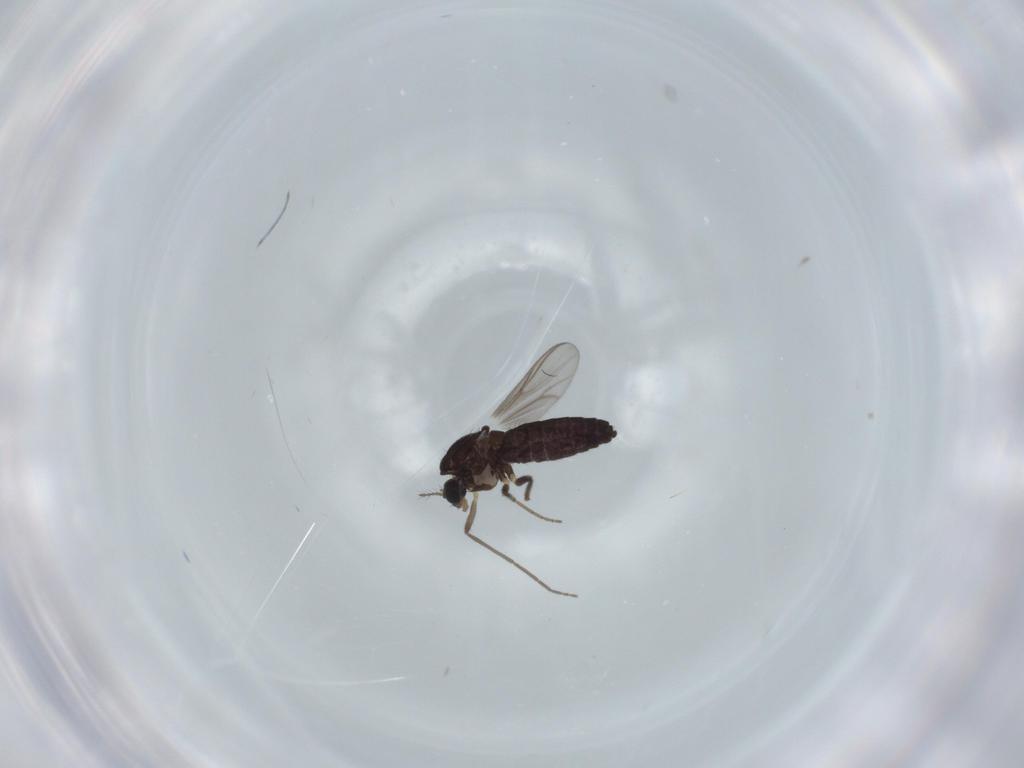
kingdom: Animalia
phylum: Arthropoda
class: Insecta
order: Diptera
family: Chironomidae
